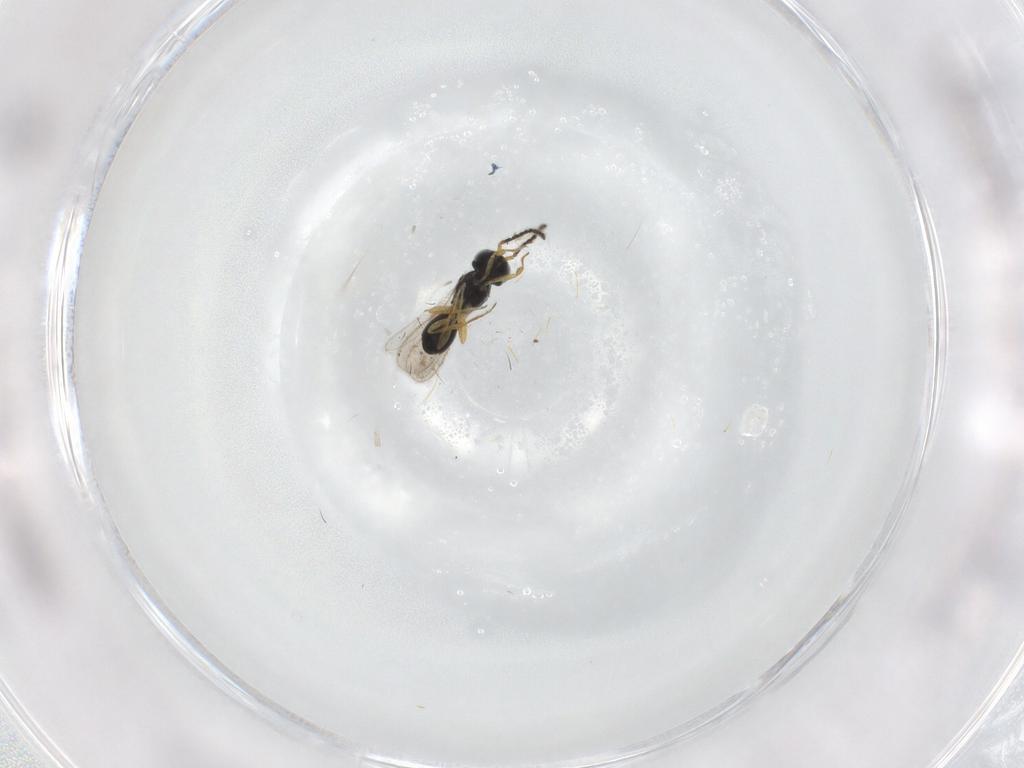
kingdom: Animalia
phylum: Arthropoda
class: Insecta
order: Hymenoptera
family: Scelionidae
